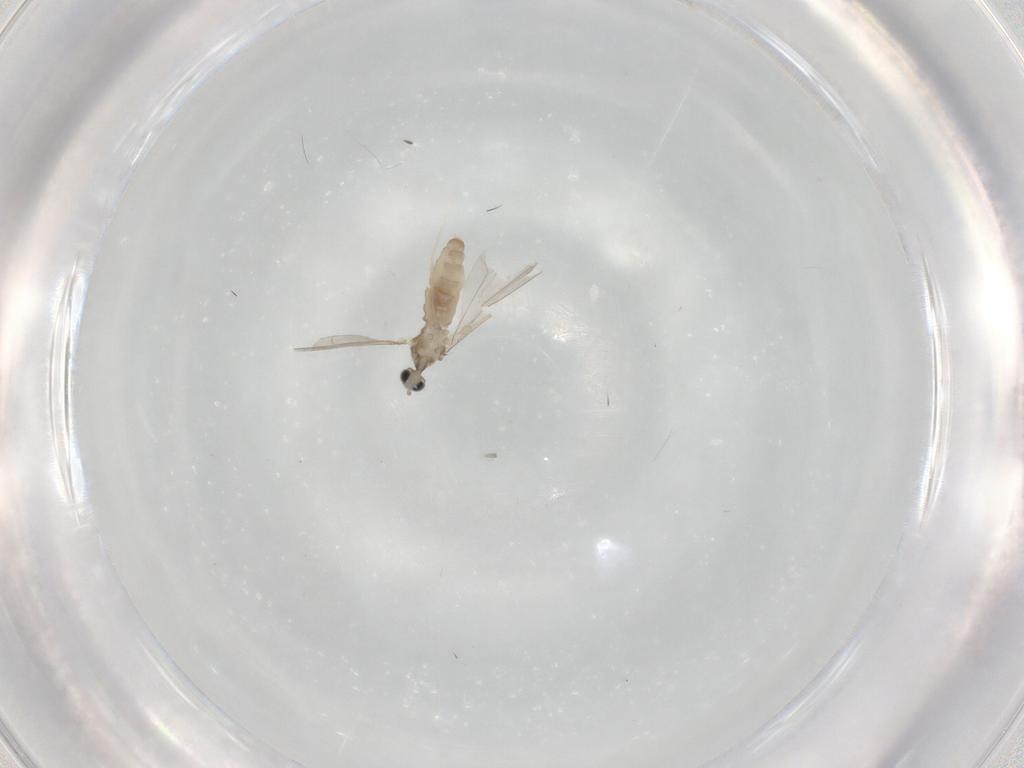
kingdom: Animalia
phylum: Arthropoda
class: Insecta
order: Diptera
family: Cecidomyiidae
